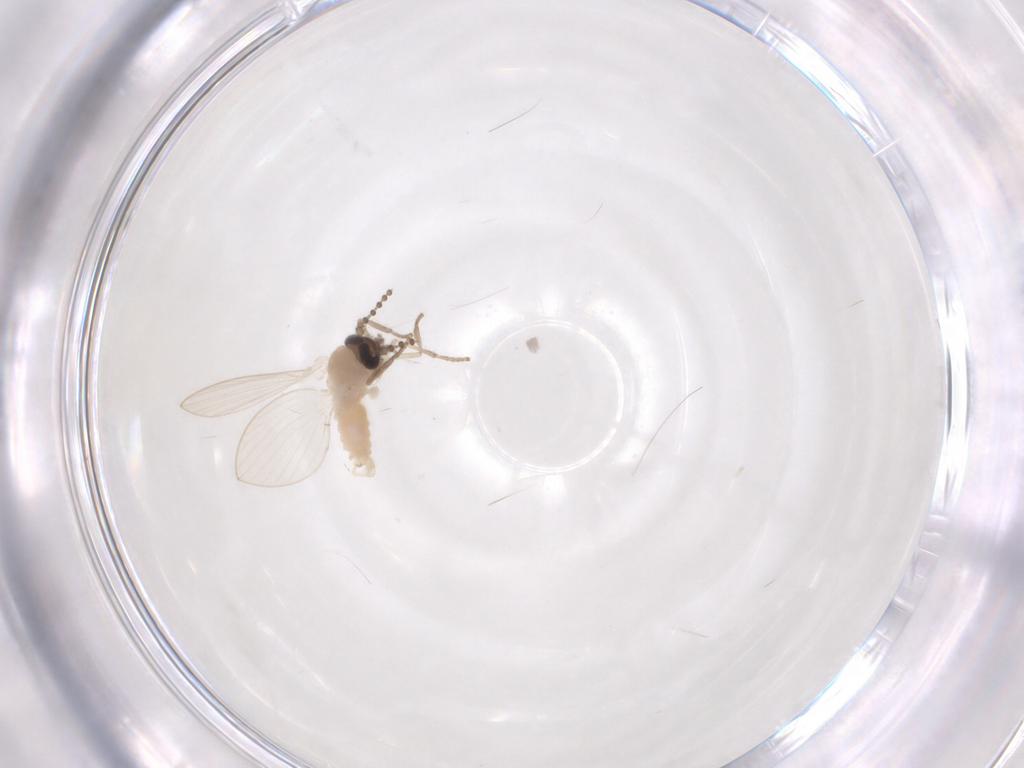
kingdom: Animalia
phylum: Arthropoda
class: Insecta
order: Diptera
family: Psychodidae
